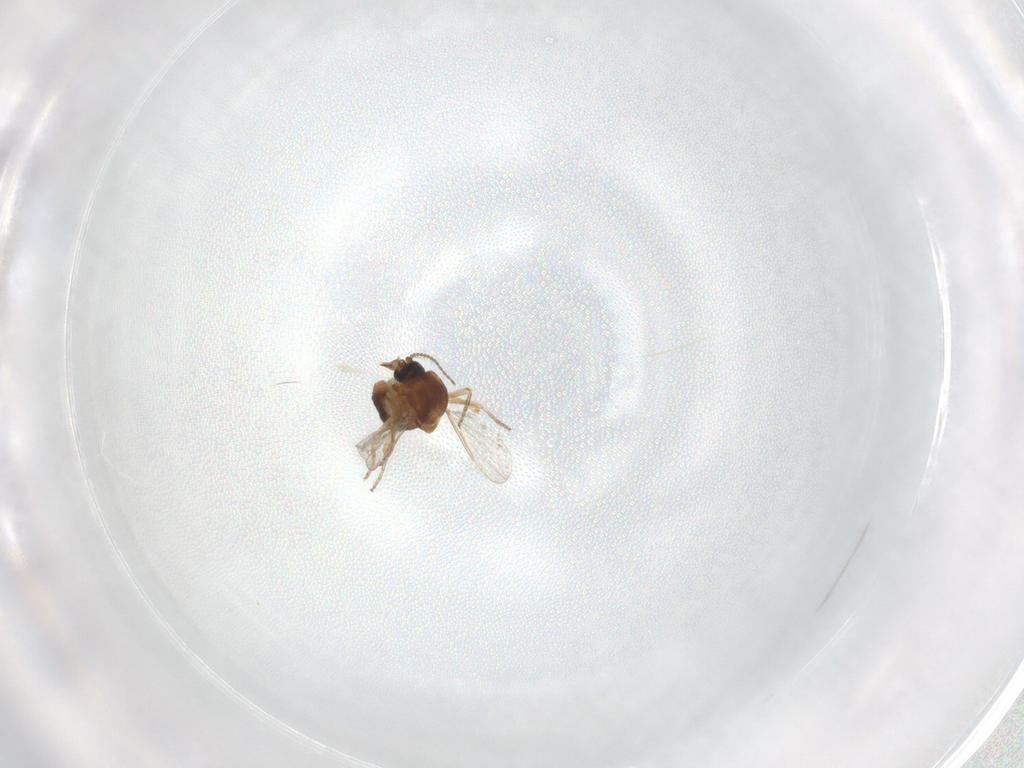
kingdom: Animalia
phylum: Arthropoda
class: Insecta
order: Diptera
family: Ceratopogonidae
